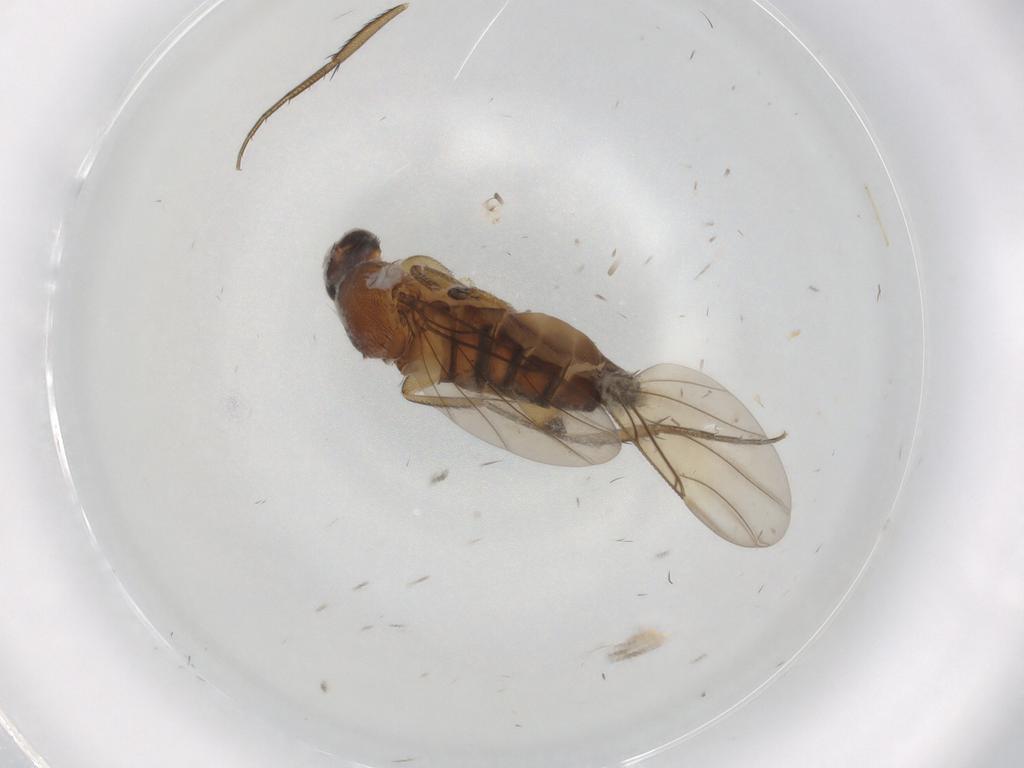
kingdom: Animalia
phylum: Arthropoda
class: Insecta
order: Diptera
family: Phoridae
